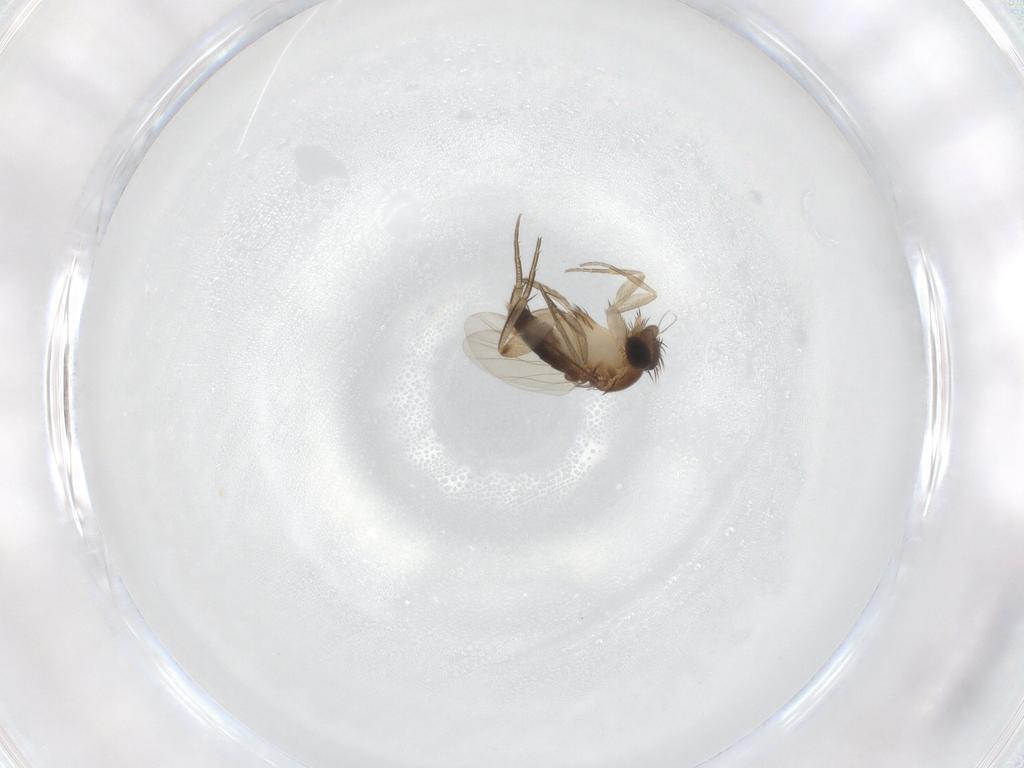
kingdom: Animalia
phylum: Arthropoda
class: Insecta
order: Diptera
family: Phoridae
